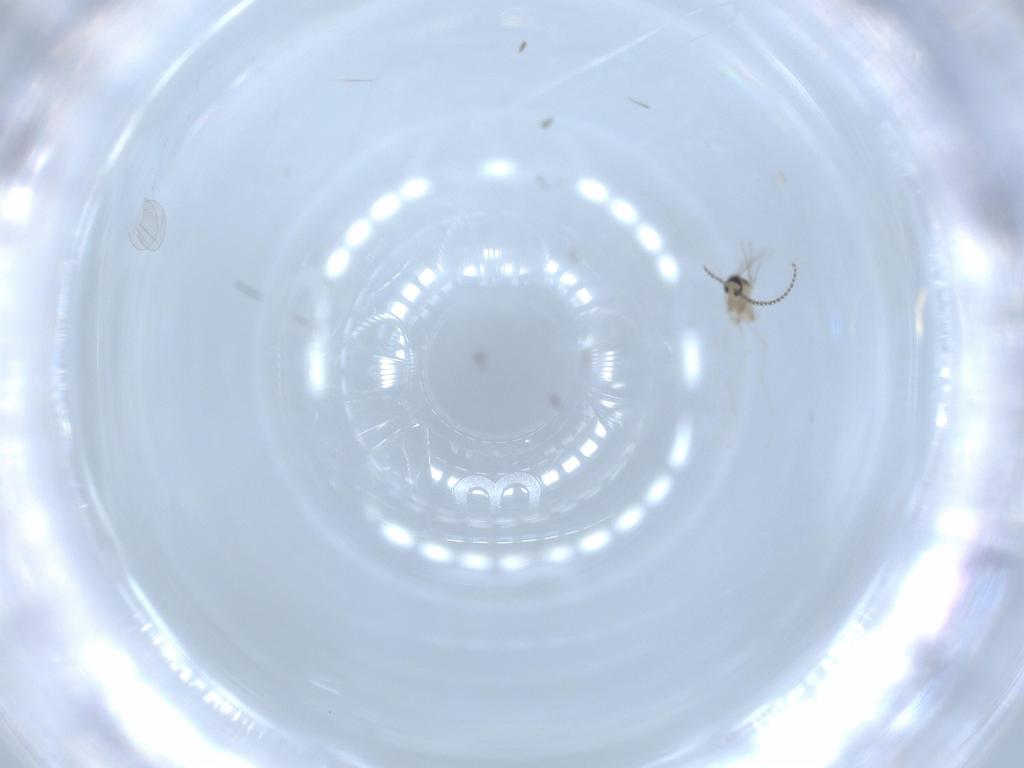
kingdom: Animalia
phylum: Arthropoda
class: Insecta
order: Diptera
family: Cecidomyiidae
